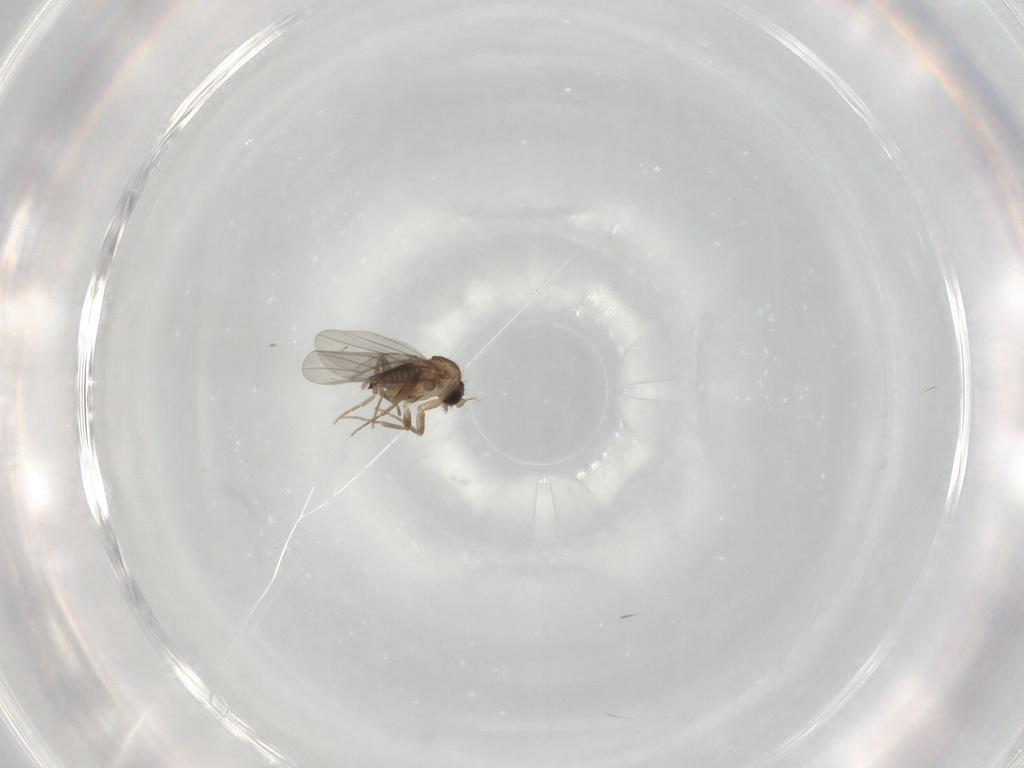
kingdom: Animalia
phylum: Arthropoda
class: Insecta
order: Diptera
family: Cecidomyiidae
